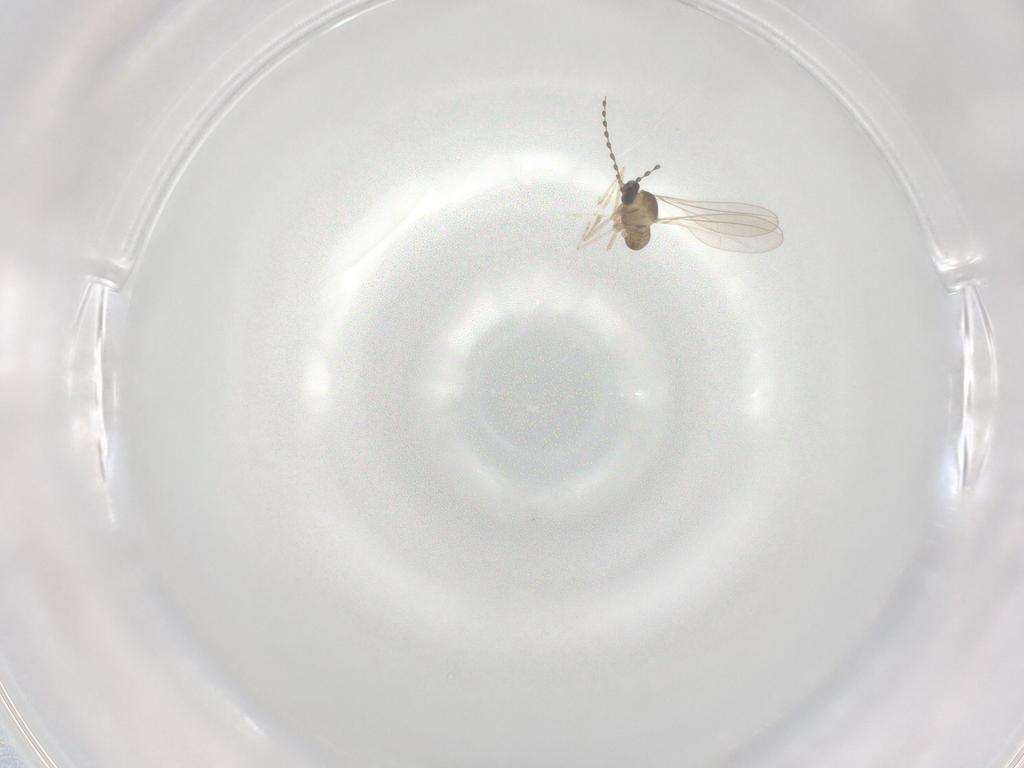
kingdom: Animalia
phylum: Arthropoda
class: Insecta
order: Diptera
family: Cecidomyiidae
